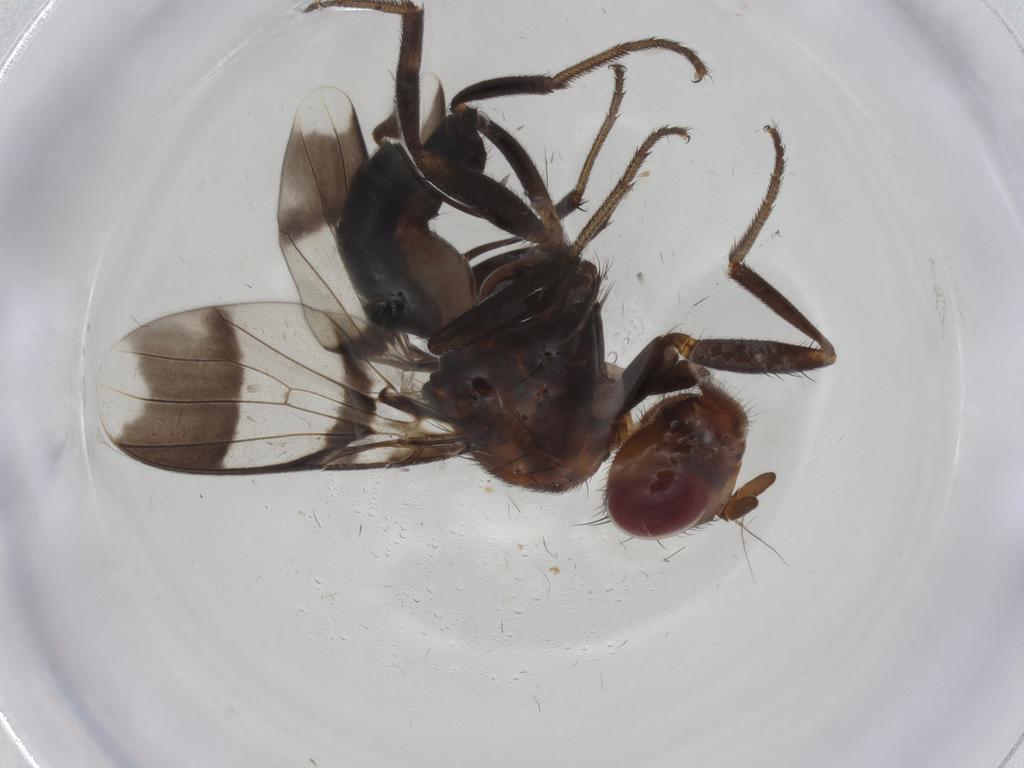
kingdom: Animalia
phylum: Arthropoda
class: Insecta
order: Diptera
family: Richardiidae
